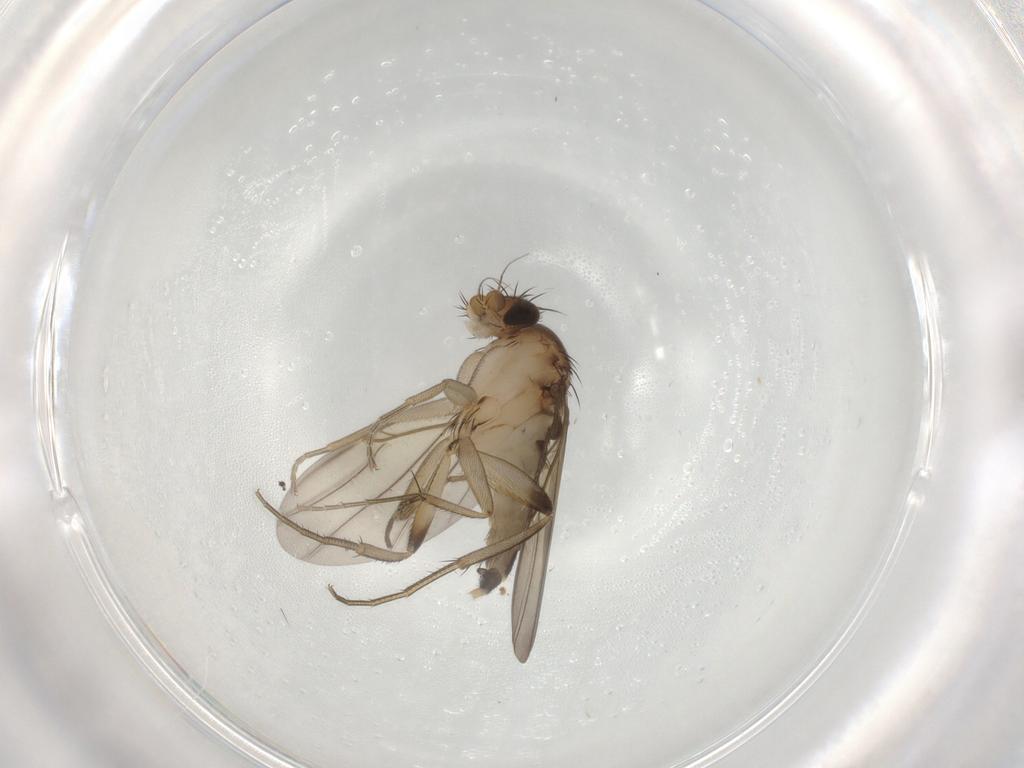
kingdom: Animalia
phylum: Arthropoda
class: Insecta
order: Diptera
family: Phoridae
